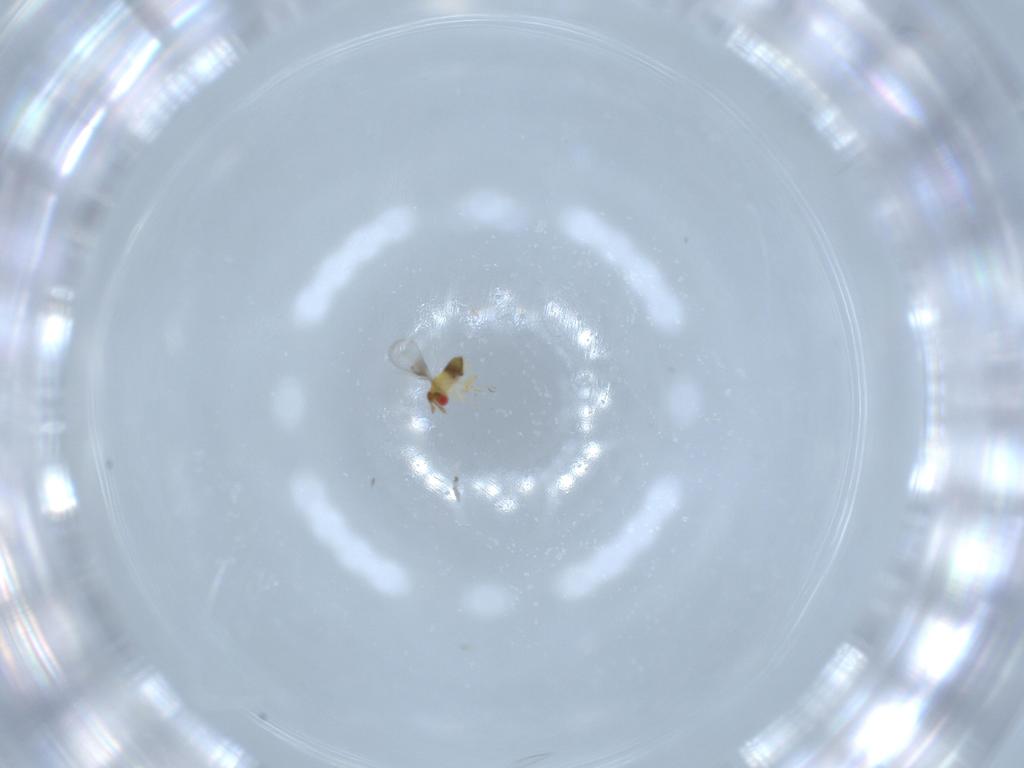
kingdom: Animalia
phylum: Arthropoda
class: Insecta
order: Hymenoptera
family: Trichogrammatidae
